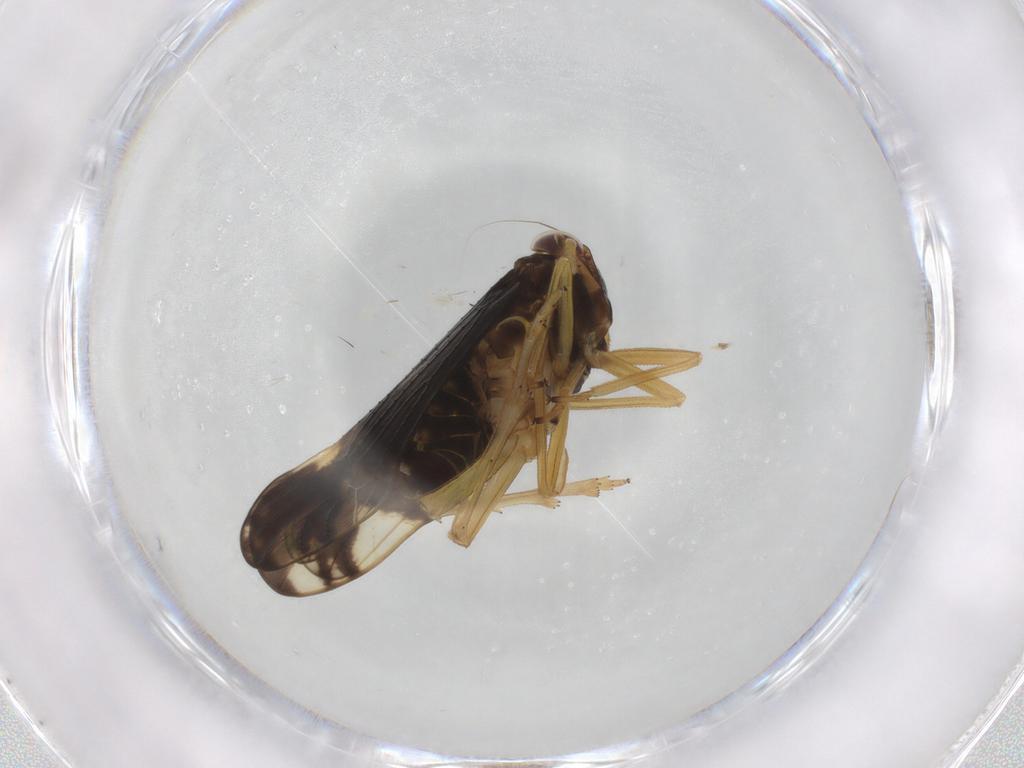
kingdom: Animalia
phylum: Arthropoda
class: Insecta
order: Hemiptera
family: Delphacidae
